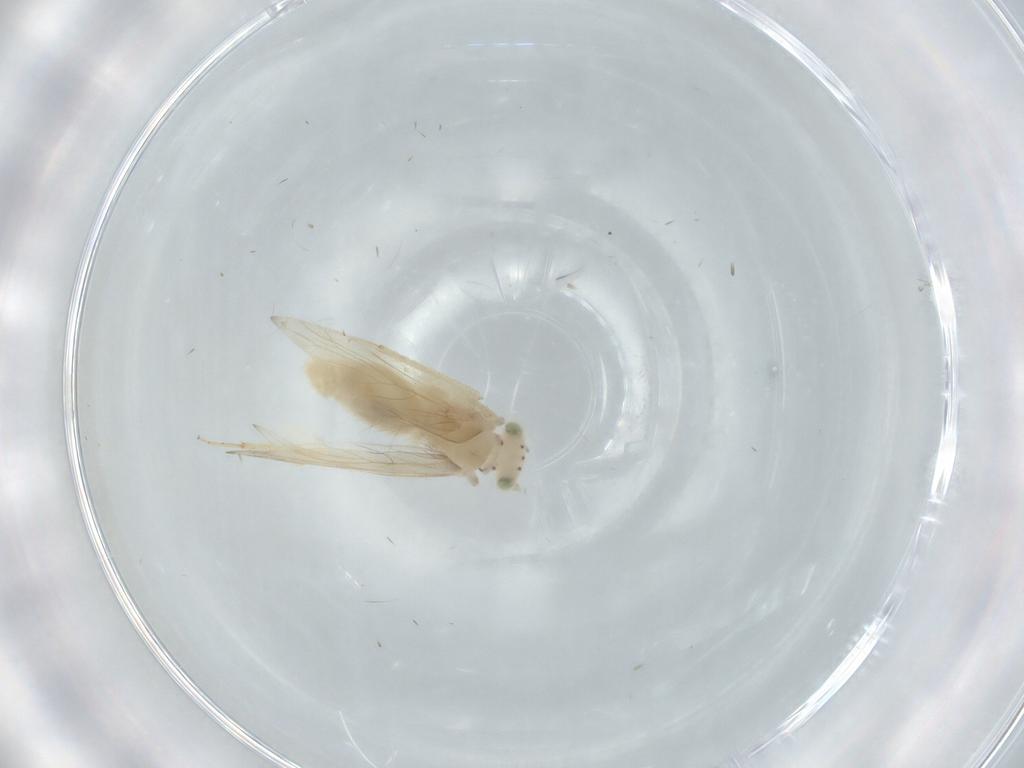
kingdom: Animalia
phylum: Arthropoda
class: Insecta
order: Psocodea
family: Lepidopsocidae
